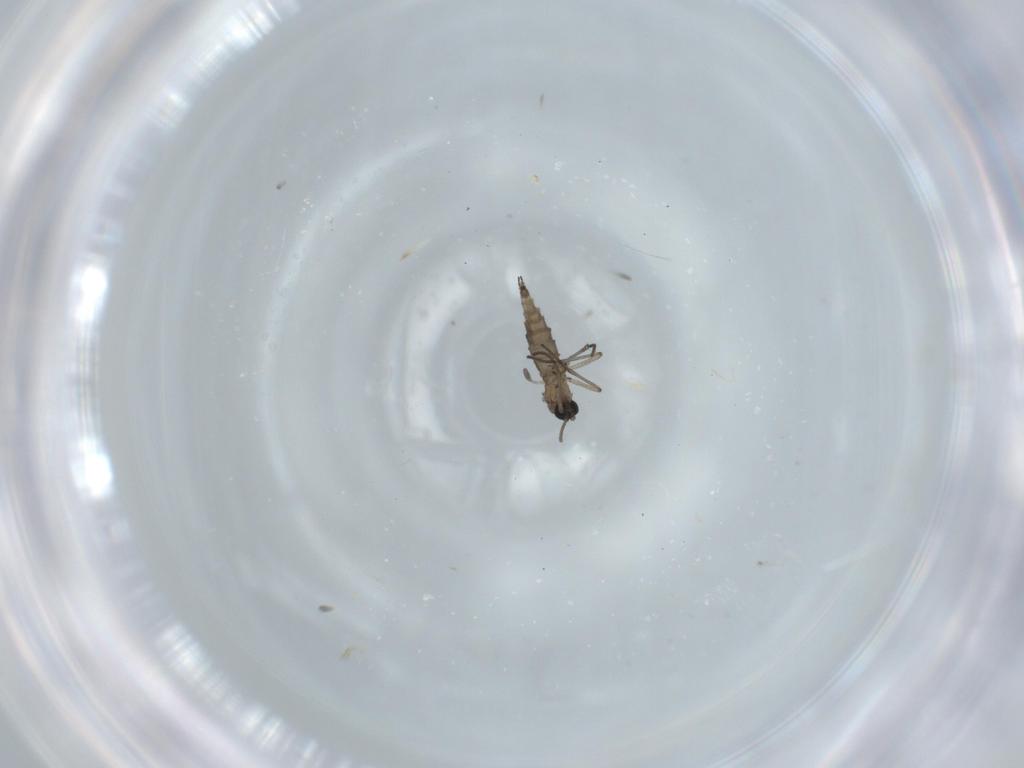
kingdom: Animalia
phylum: Arthropoda
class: Insecta
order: Diptera
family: Sciaridae
